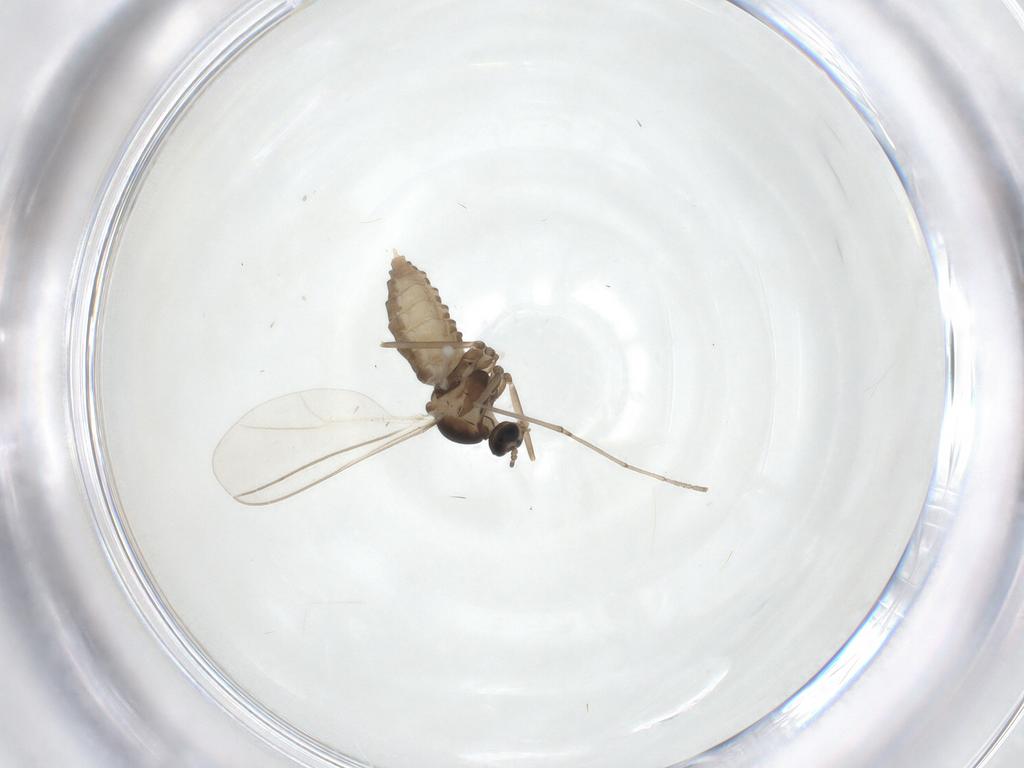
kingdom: Animalia
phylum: Arthropoda
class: Insecta
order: Diptera
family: Cecidomyiidae
